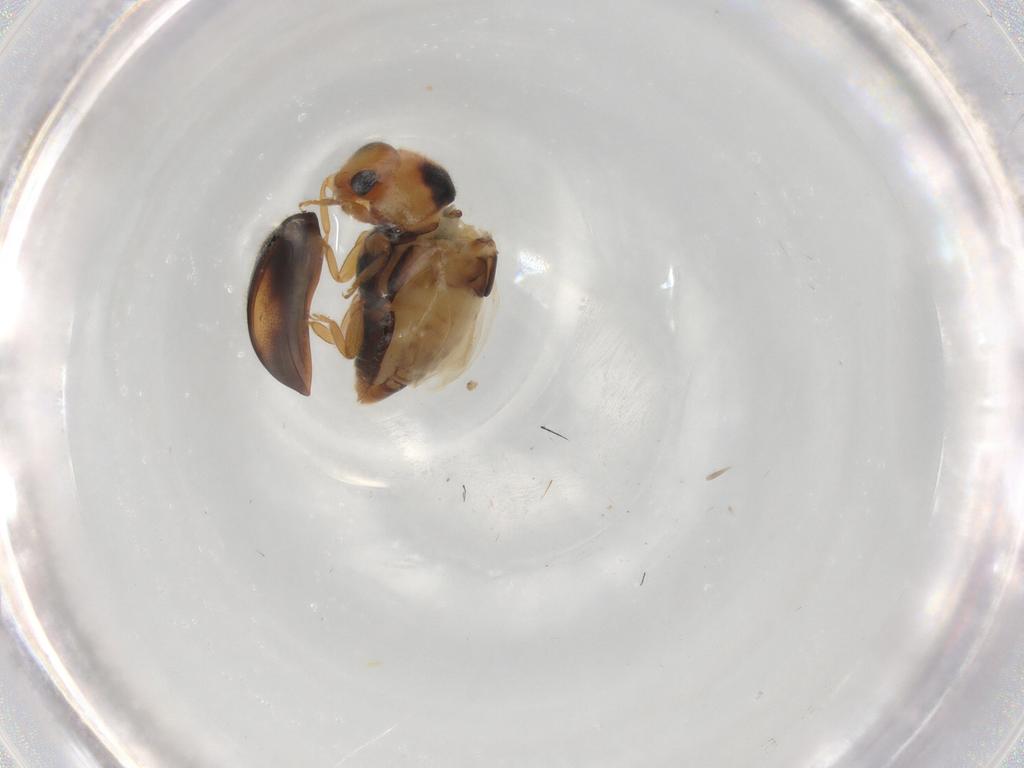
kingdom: Animalia
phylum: Arthropoda
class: Insecta
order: Coleoptera
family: Coccinellidae
